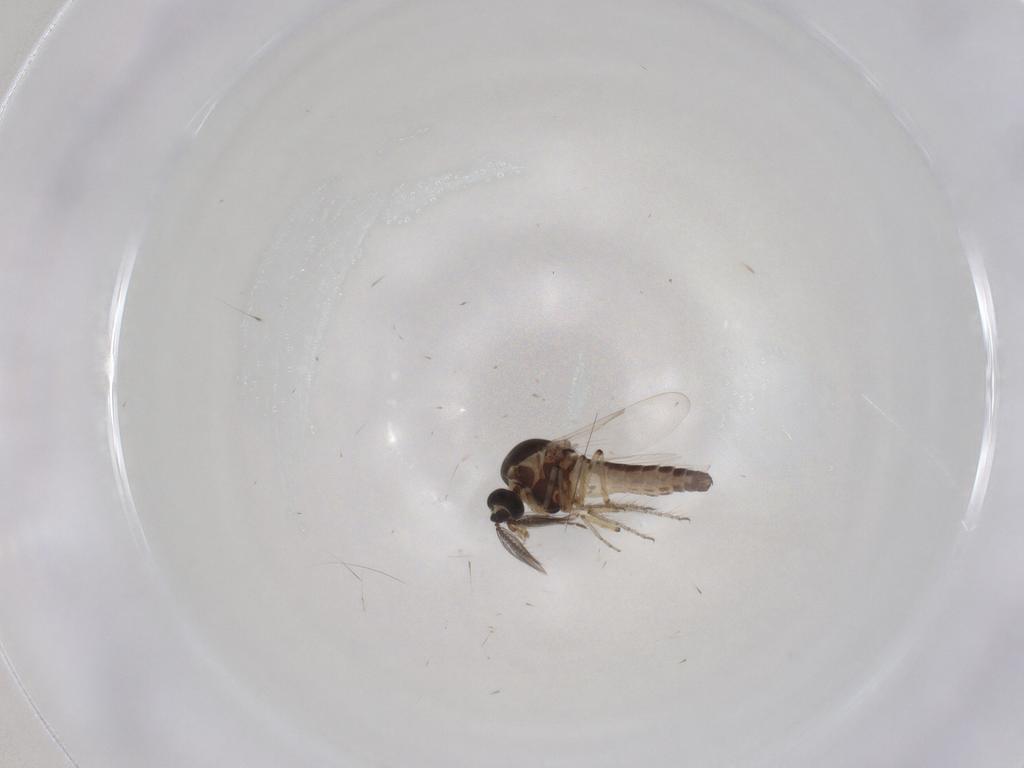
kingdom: Animalia
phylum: Arthropoda
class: Insecta
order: Diptera
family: Ceratopogonidae
